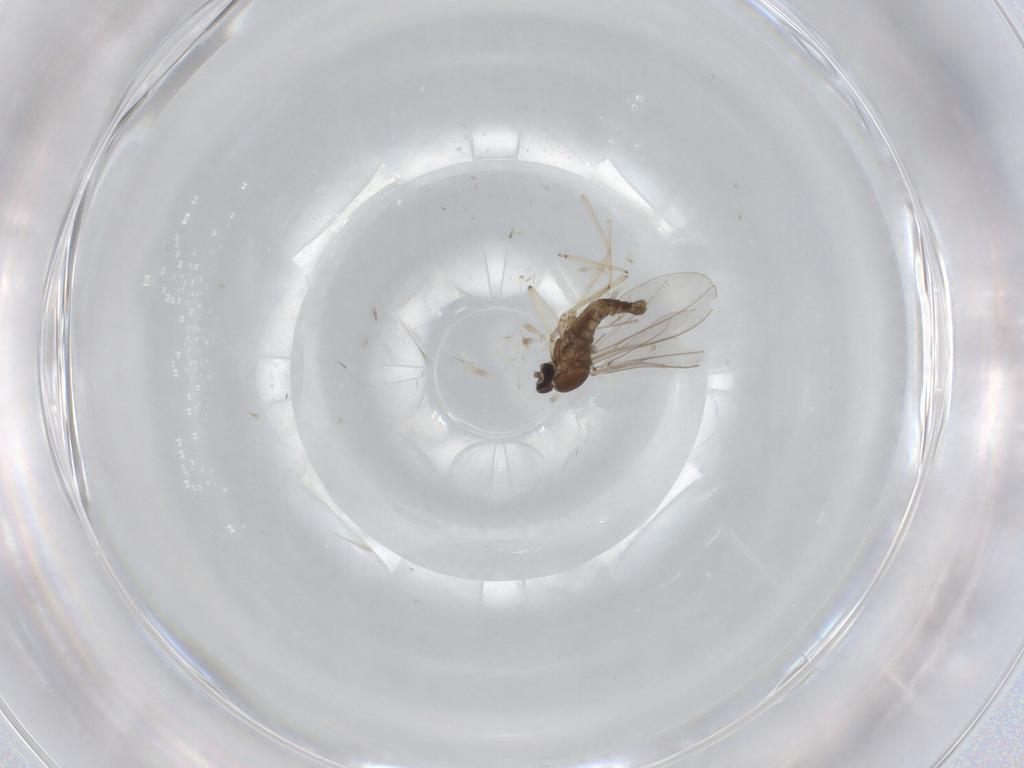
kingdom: Animalia
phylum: Arthropoda
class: Insecta
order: Diptera
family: Cecidomyiidae
